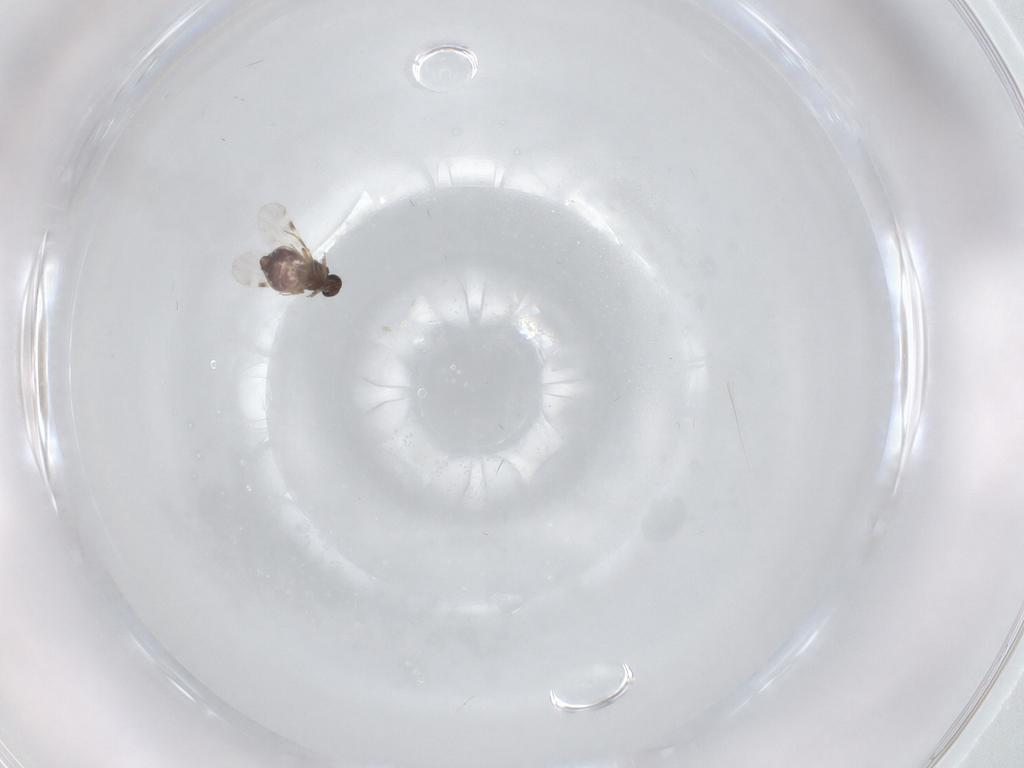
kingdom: Animalia
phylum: Arthropoda
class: Insecta
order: Diptera
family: Sphaeroceridae
